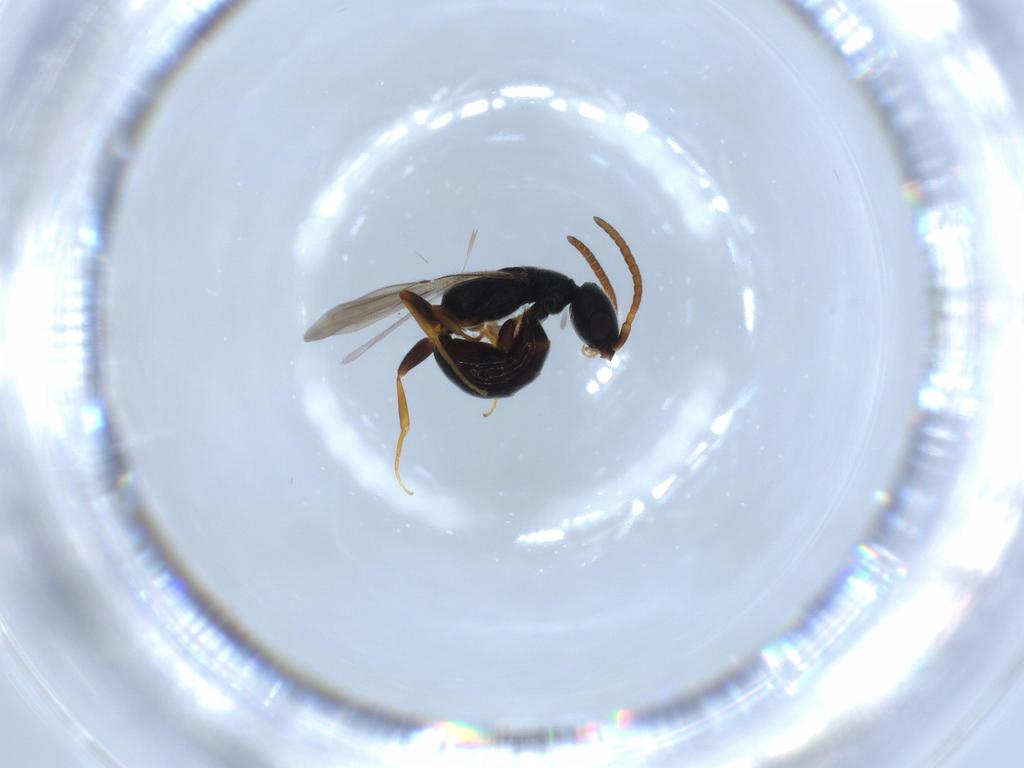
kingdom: Animalia
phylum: Arthropoda
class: Insecta
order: Hymenoptera
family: Bethylidae
